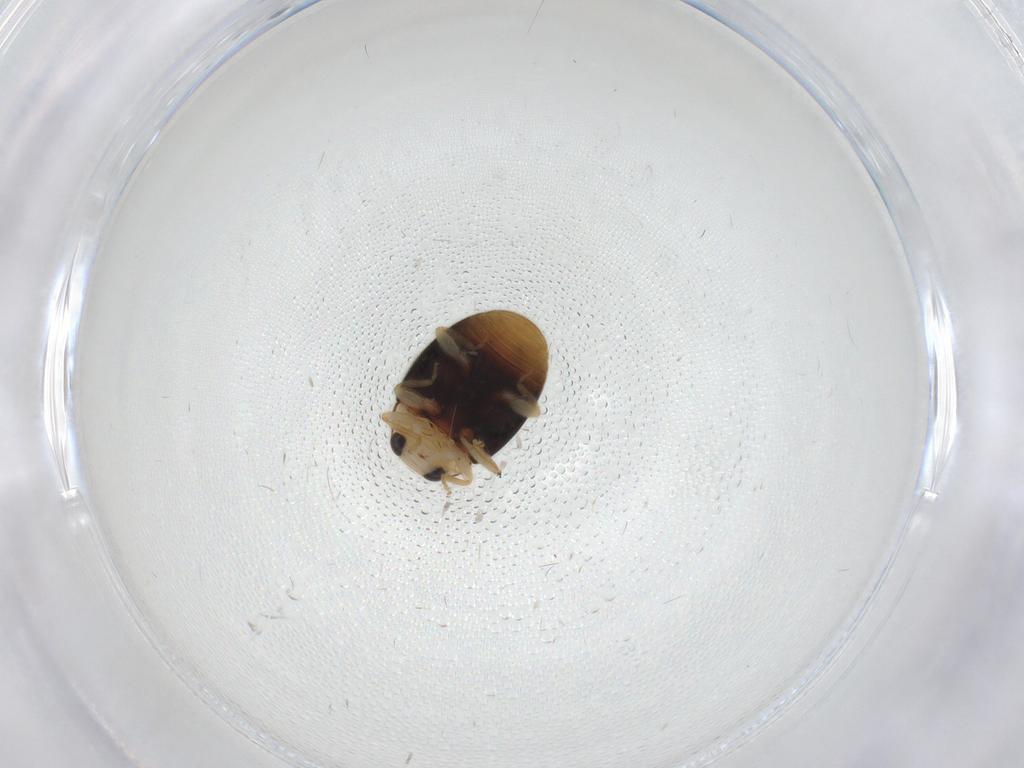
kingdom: Animalia
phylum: Arthropoda
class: Insecta
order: Coleoptera
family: Coccinellidae
